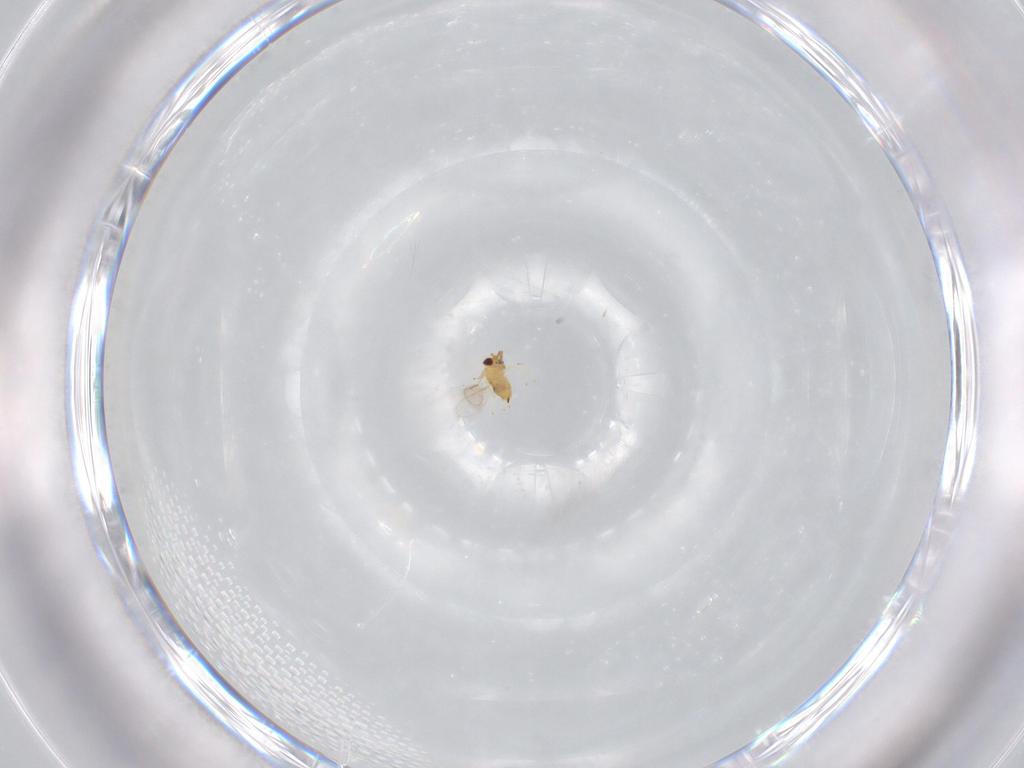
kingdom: Animalia
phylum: Arthropoda
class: Insecta
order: Hymenoptera
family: Aphelinidae
